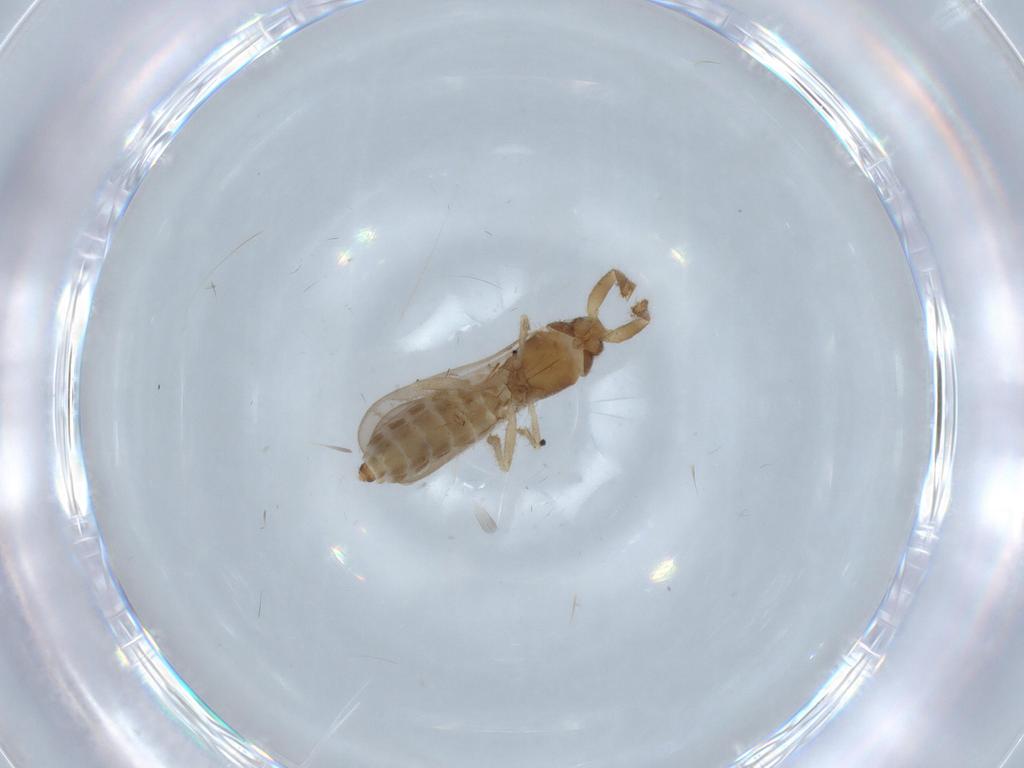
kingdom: Animalia
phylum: Arthropoda
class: Insecta
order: Hemiptera
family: Enicocephalidae
